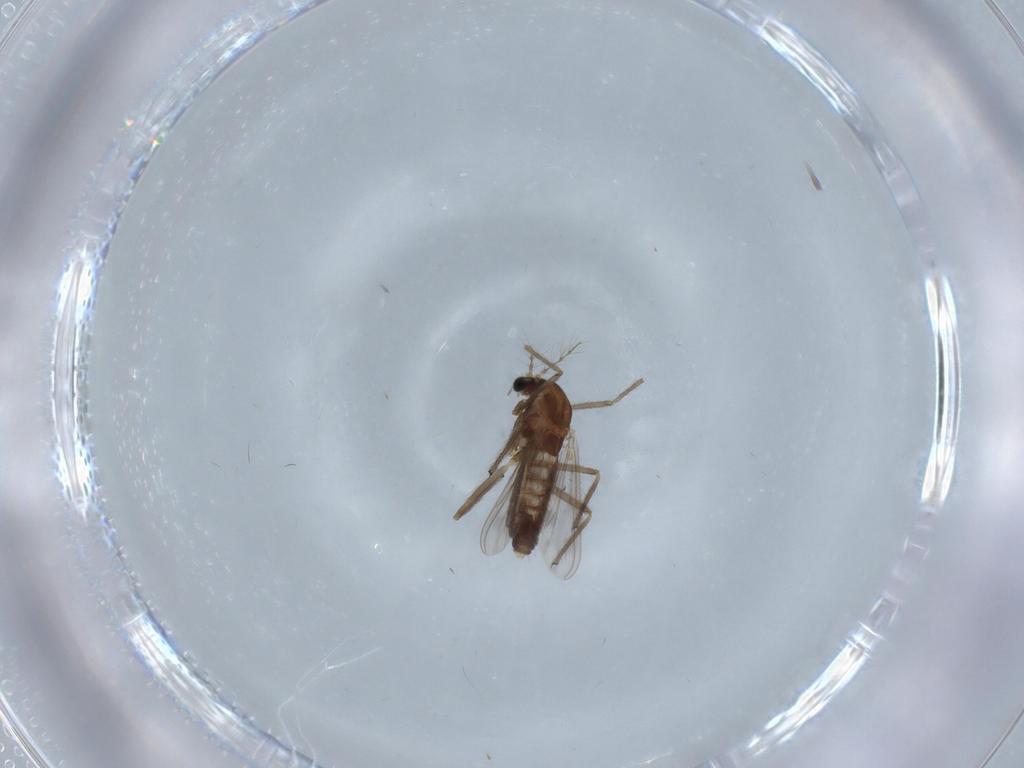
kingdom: Animalia
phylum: Arthropoda
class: Insecta
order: Diptera
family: Chironomidae
